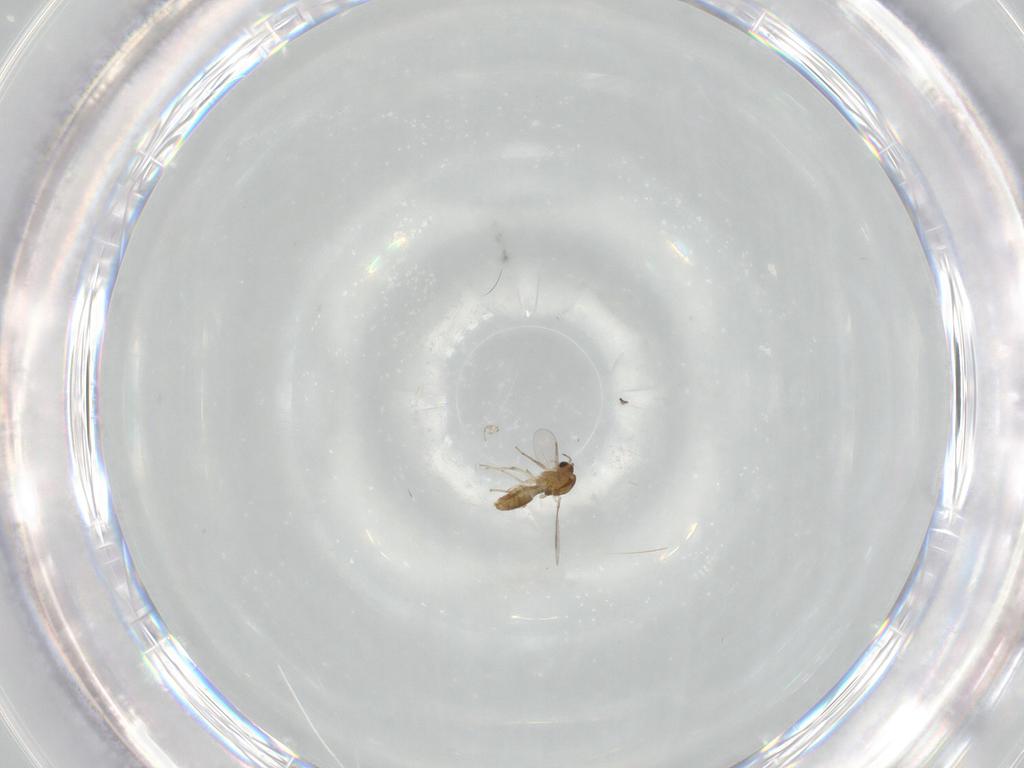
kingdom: Animalia
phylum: Arthropoda
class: Insecta
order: Diptera
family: Chironomidae
